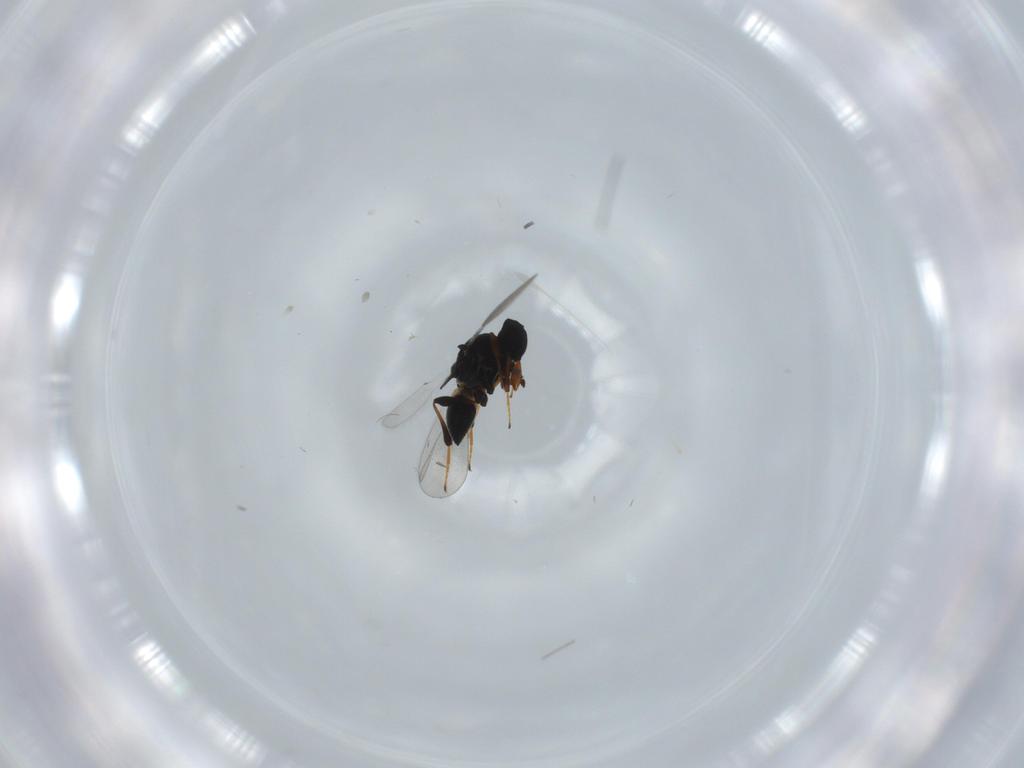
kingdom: Animalia
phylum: Arthropoda
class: Insecta
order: Hymenoptera
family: Platygastridae
